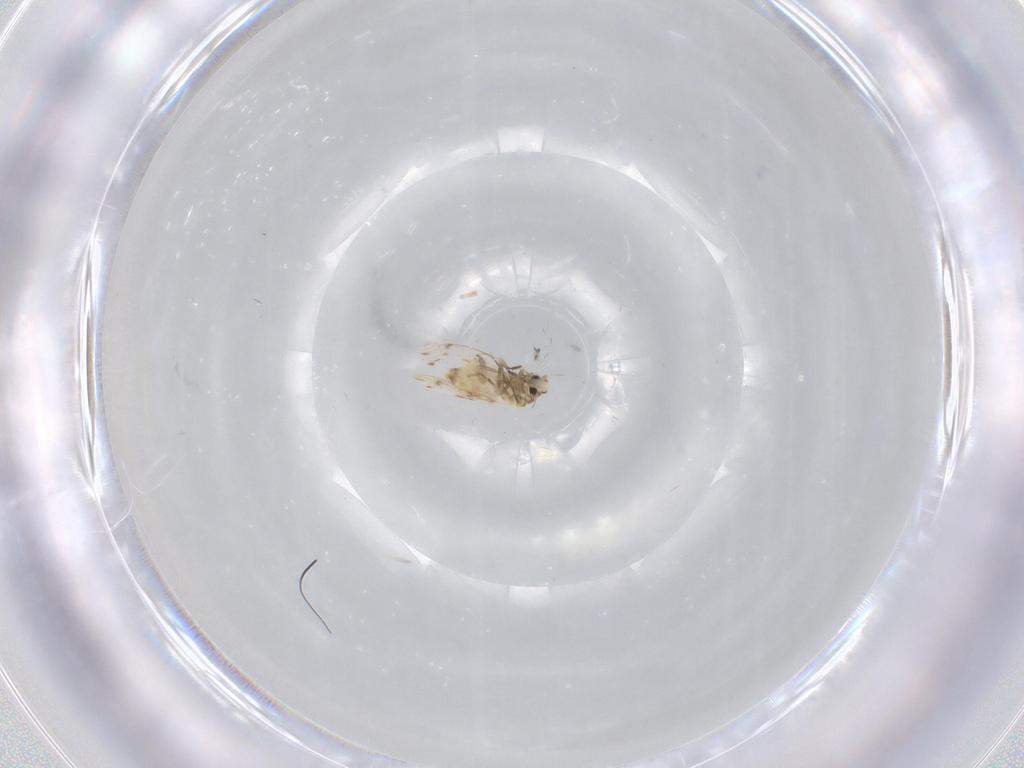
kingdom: Animalia
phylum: Arthropoda
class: Insecta
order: Hemiptera
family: Aleyrodidae
